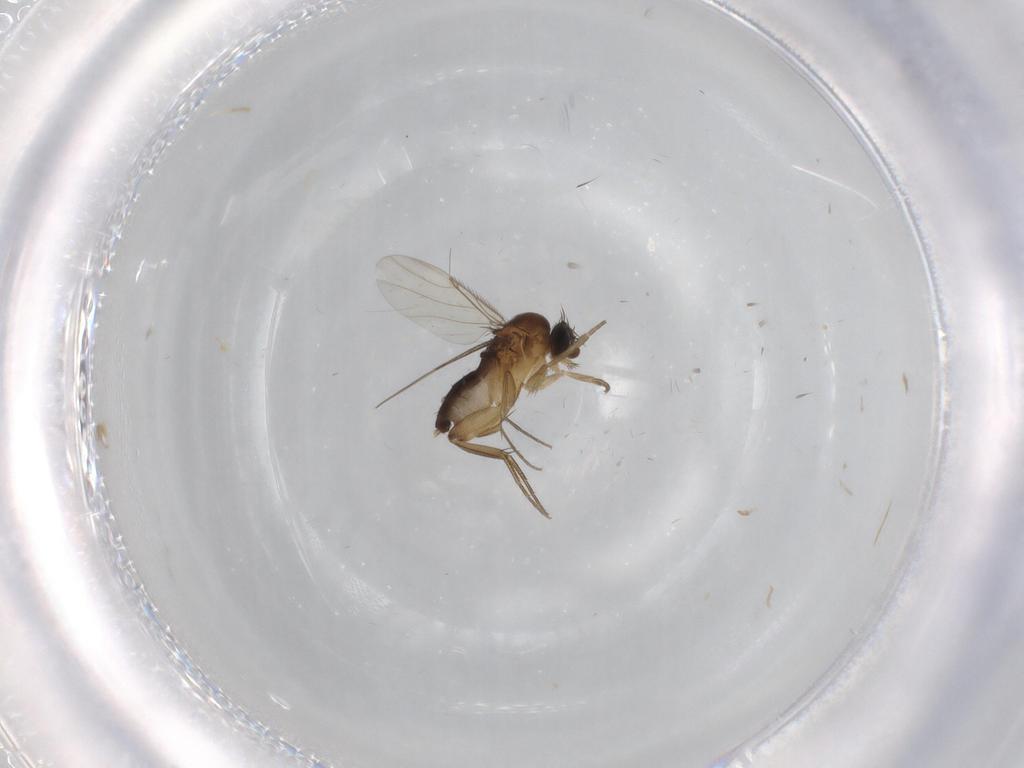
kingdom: Animalia
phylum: Arthropoda
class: Insecta
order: Diptera
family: Phoridae
